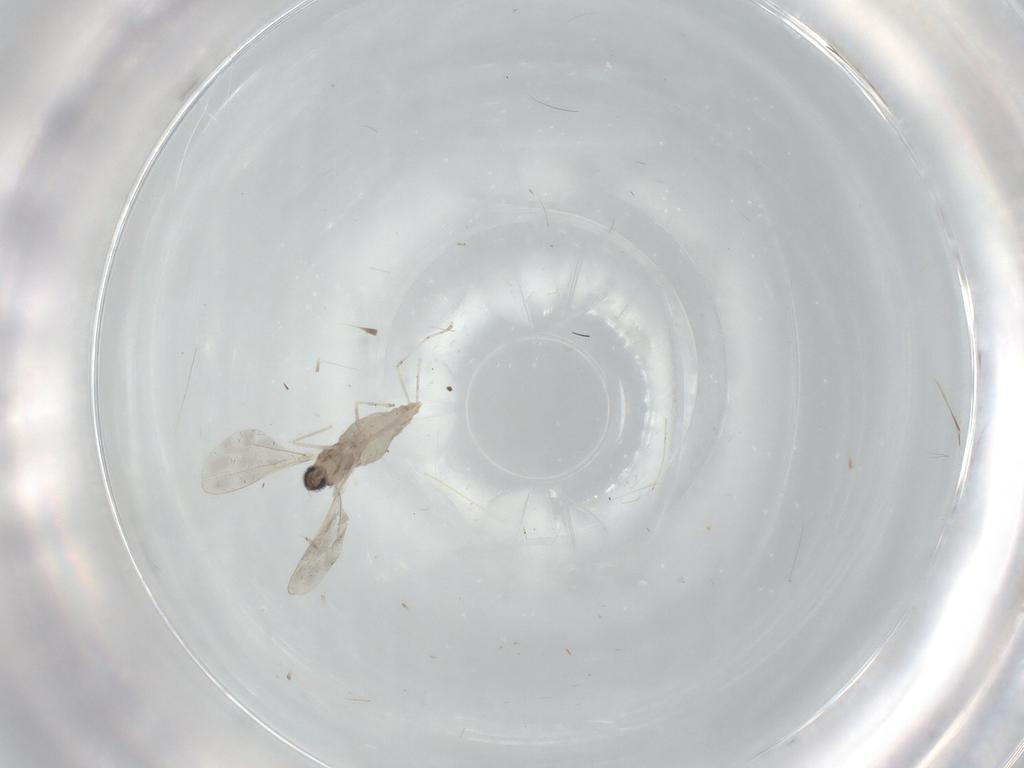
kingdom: Animalia
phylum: Arthropoda
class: Insecta
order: Diptera
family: Cecidomyiidae
